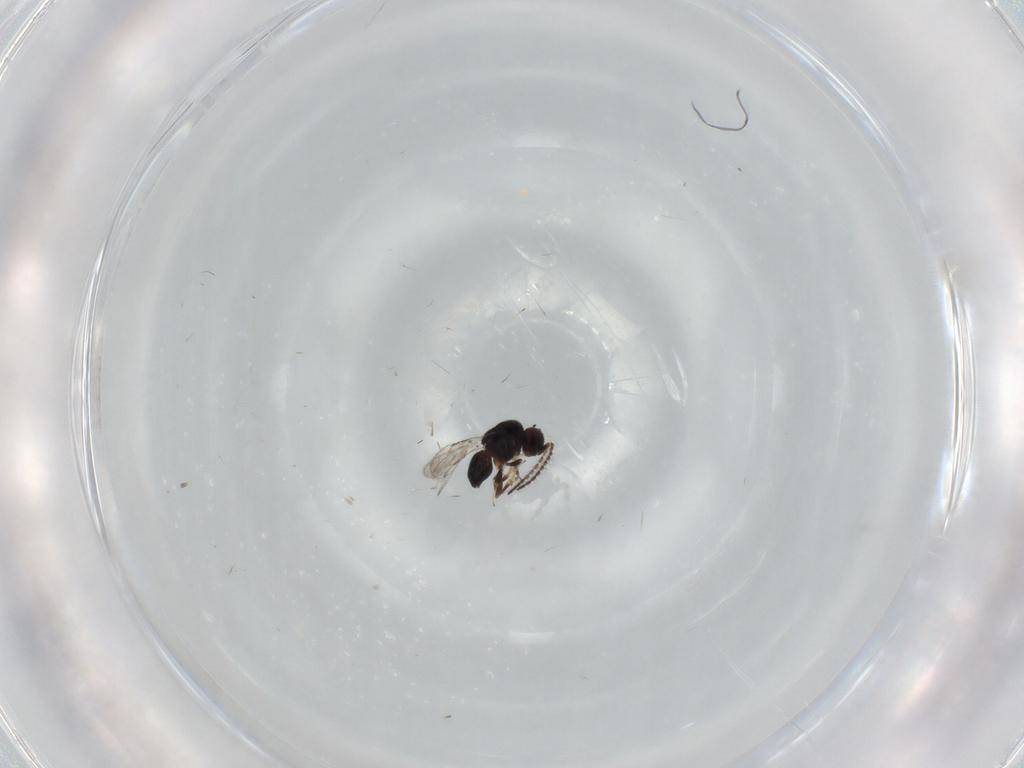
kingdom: Animalia
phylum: Arthropoda
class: Insecta
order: Hymenoptera
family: Ceraphronidae
